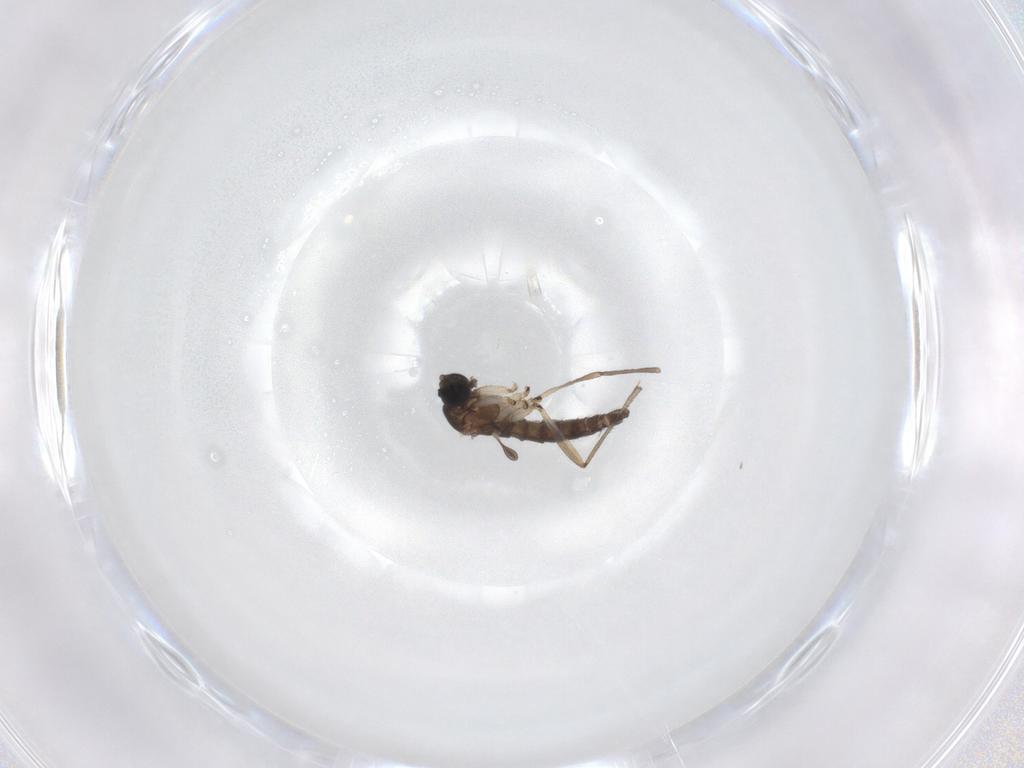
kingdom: Animalia
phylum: Arthropoda
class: Insecta
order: Diptera
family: Sciaridae
